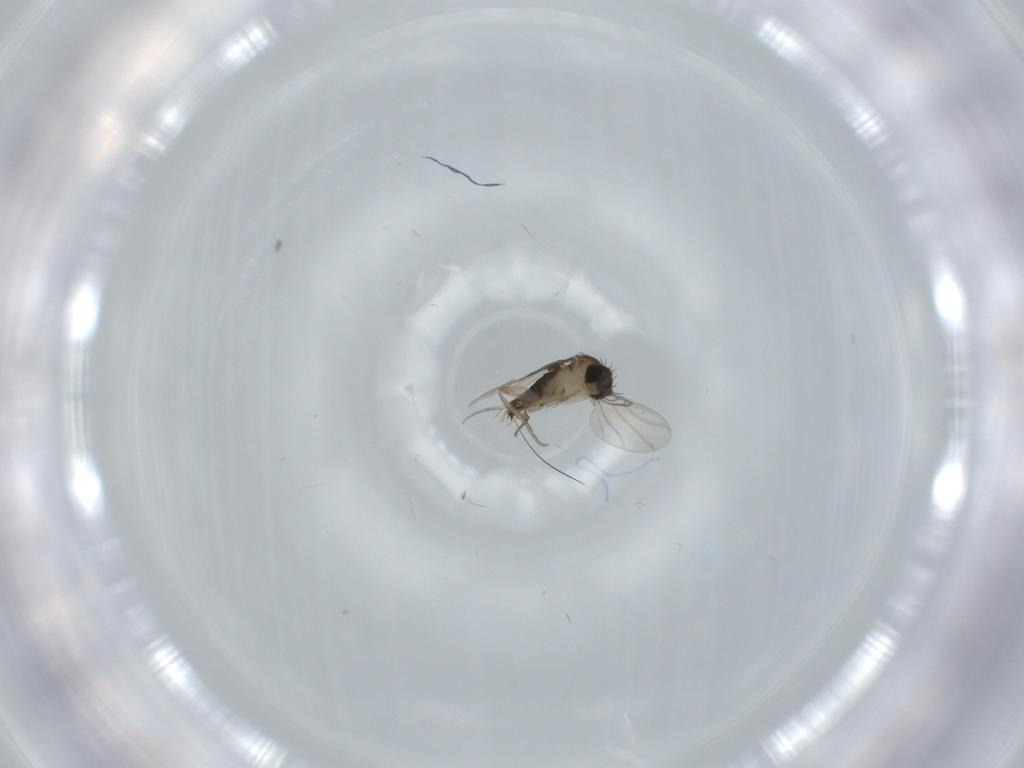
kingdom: Animalia
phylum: Arthropoda
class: Insecta
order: Diptera
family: Phoridae
